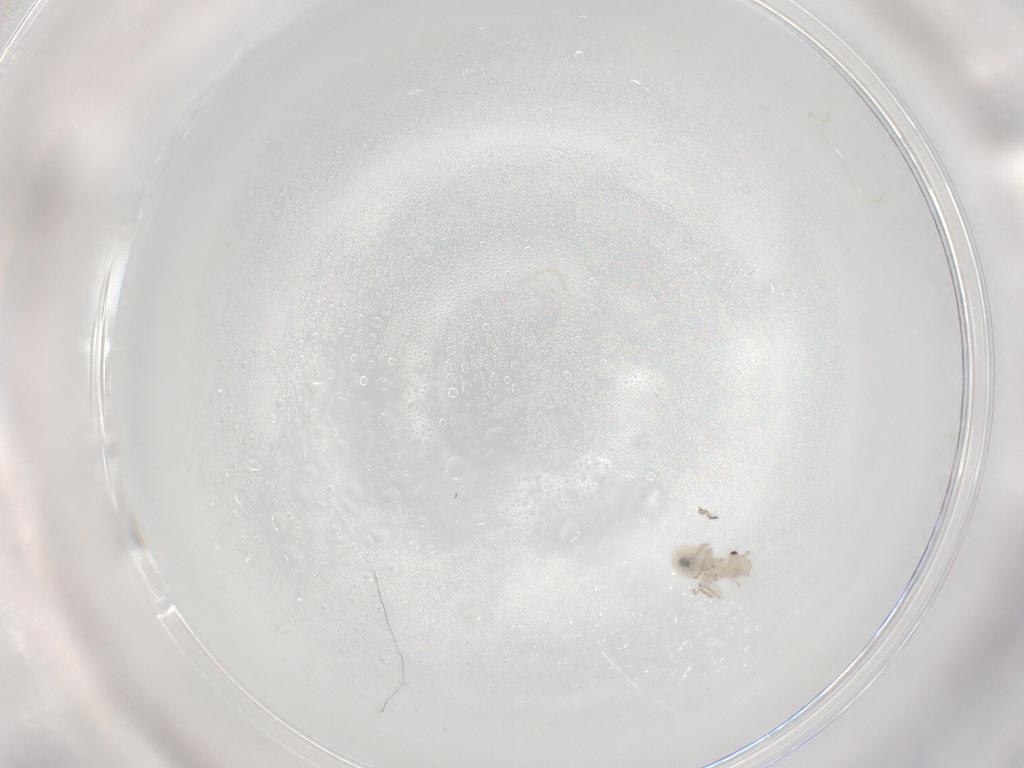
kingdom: Animalia
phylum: Arthropoda
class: Insecta
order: Psocodea
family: Caeciliusidae
